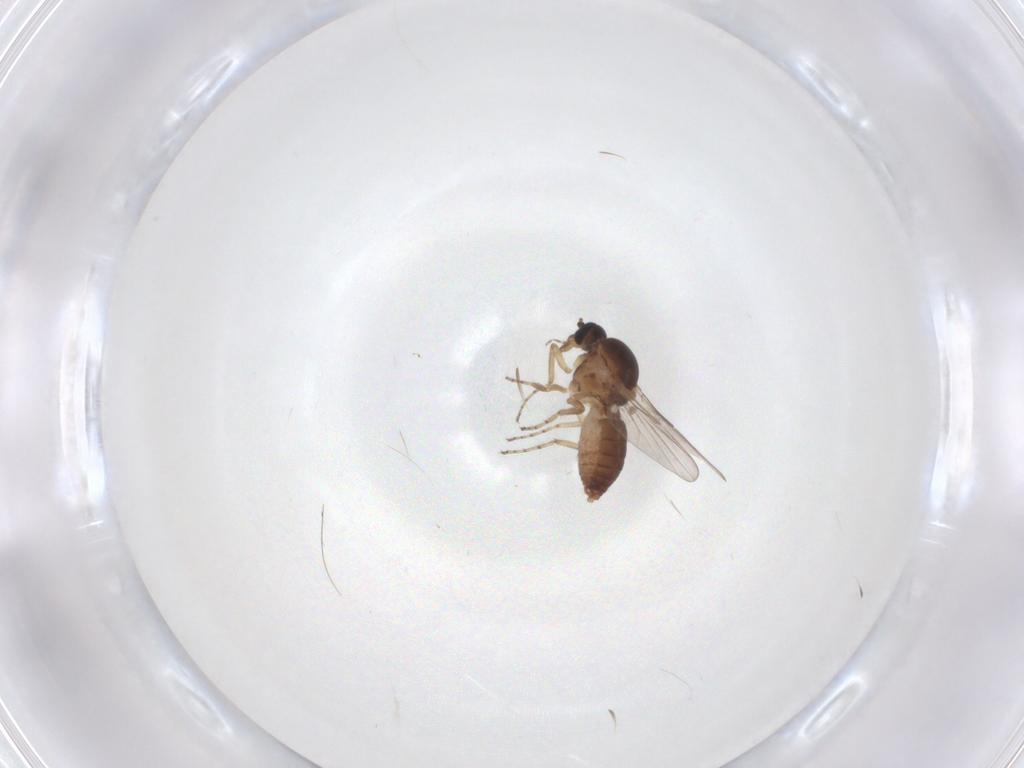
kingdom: Animalia
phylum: Arthropoda
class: Insecta
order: Diptera
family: Ceratopogonidae
